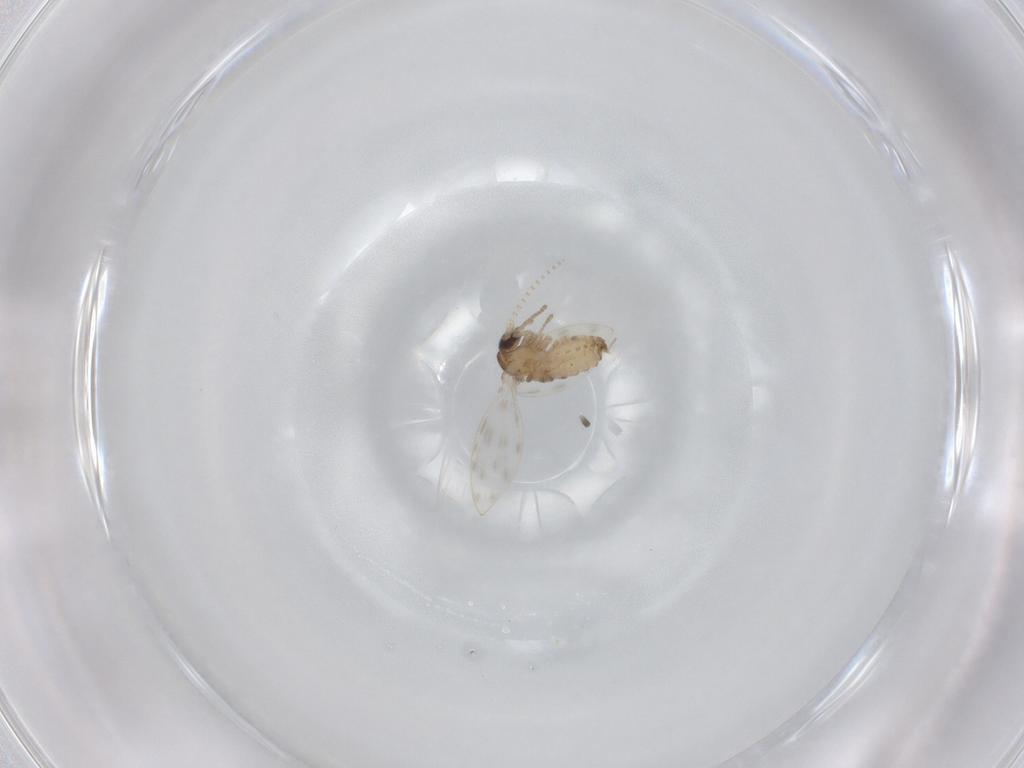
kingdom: Animalia
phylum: Arthropoda
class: Insecta
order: Diptera
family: Psychodidae
